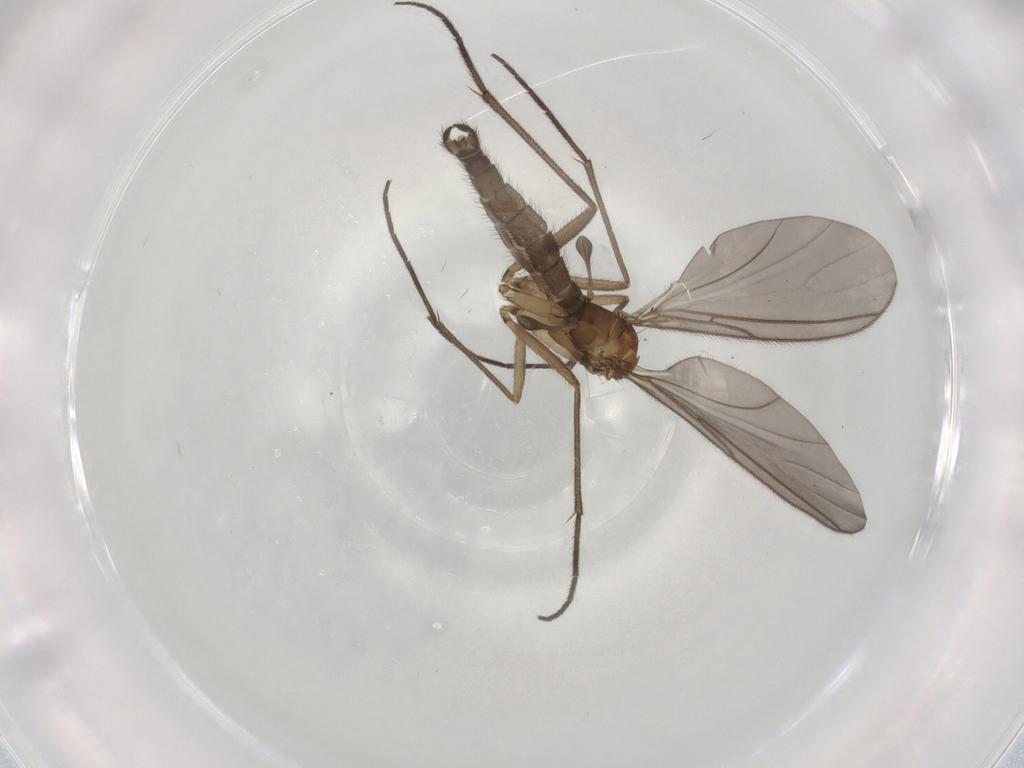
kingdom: Animalia
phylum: Arthropoda
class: Insecta
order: Diptera
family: Sciaridae
